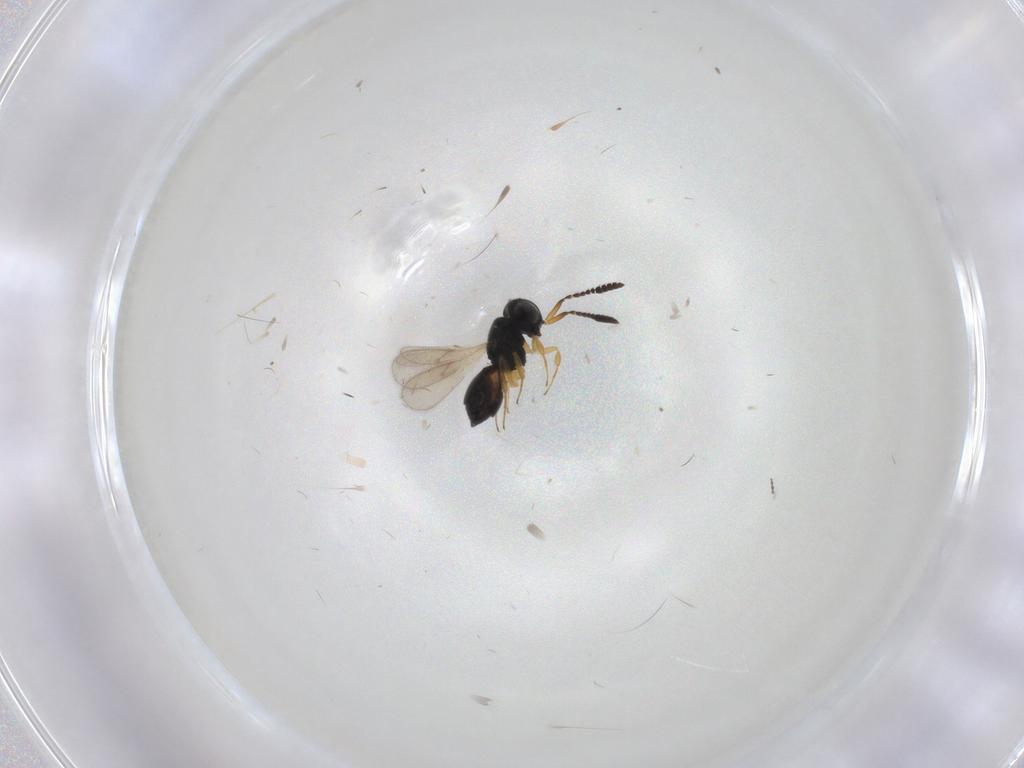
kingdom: Animalia
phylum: Arthropoda
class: Insecta
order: Hymenoptera
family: Scelionidae
